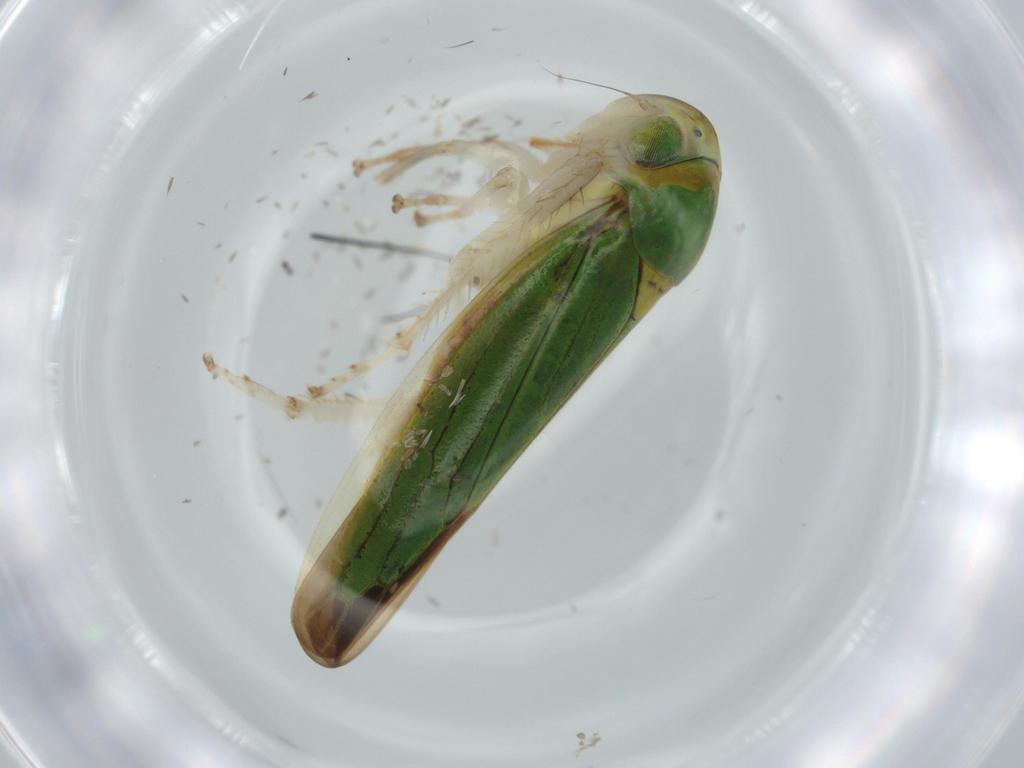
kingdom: Animalia
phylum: Arthropoda
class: Insecta
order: Hemiptera
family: Cicadellidae
